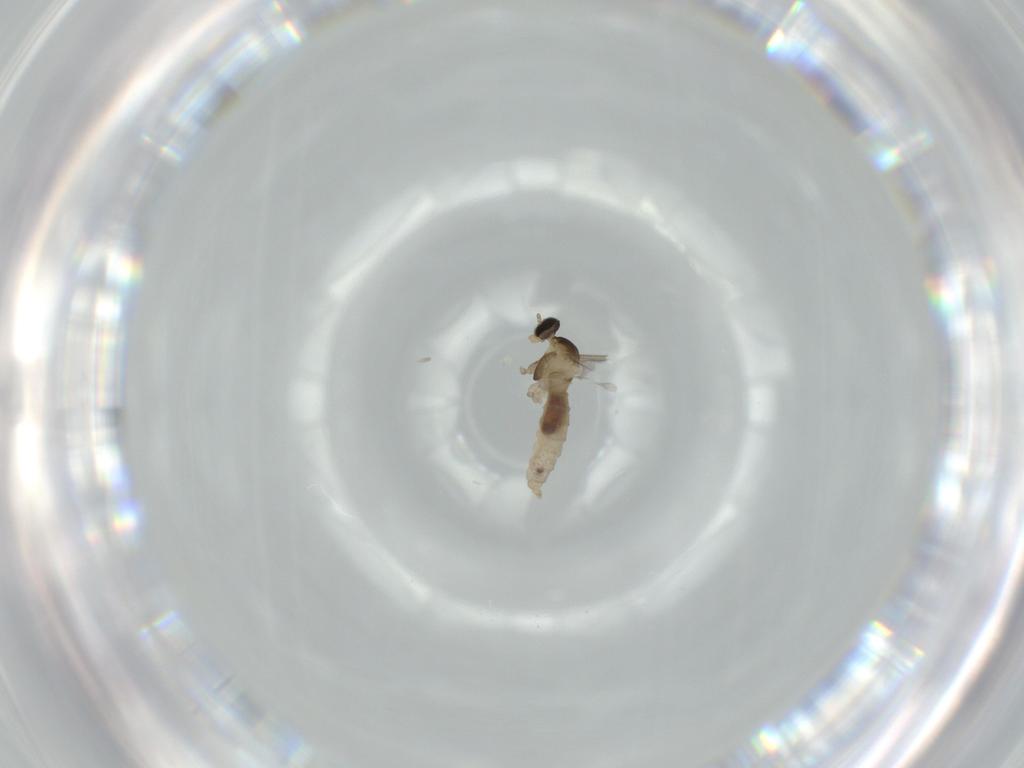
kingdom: Animalia
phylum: Arthropoda
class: Insecta
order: Diptera
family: Cecidomyiidae
